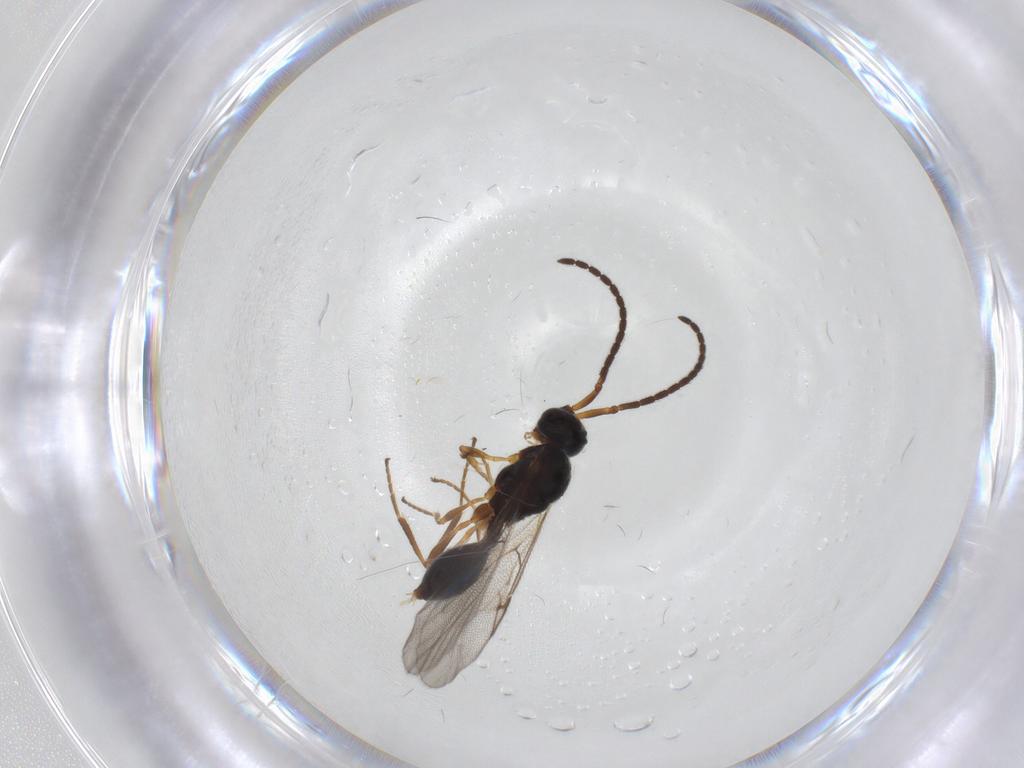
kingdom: Animalia
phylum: Arthropoda
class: Insecta
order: Hymenoptera
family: Diapriidae
